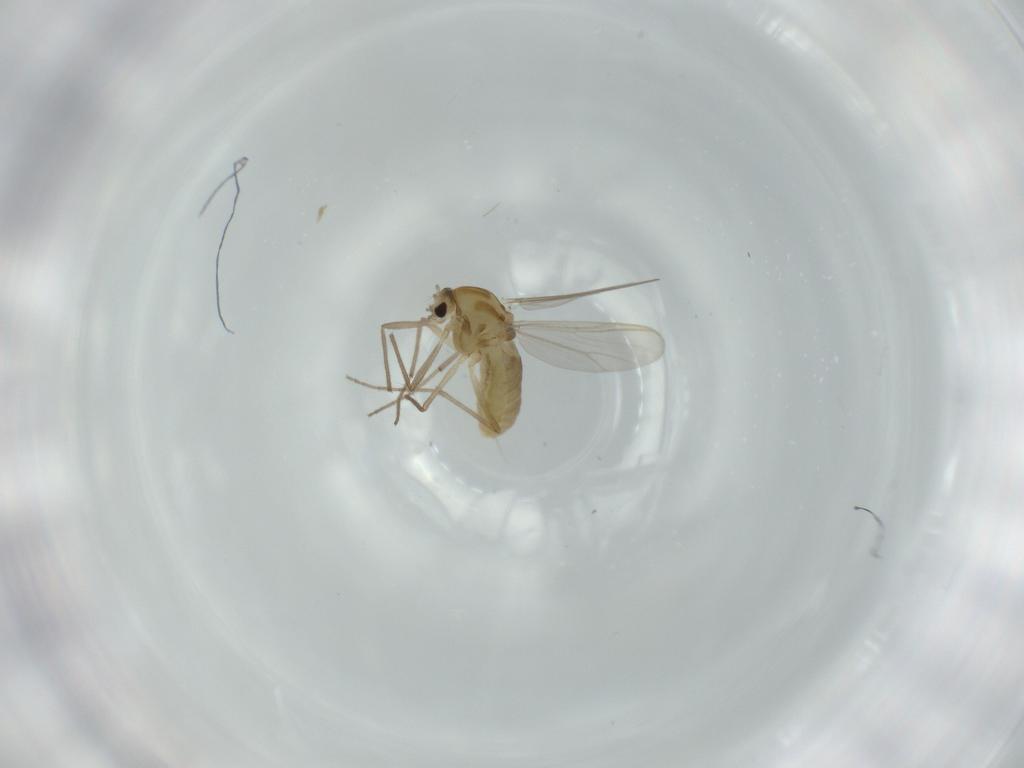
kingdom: Animalia
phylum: Arthropoda
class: Insecta
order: Diptera
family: Chironomidae
